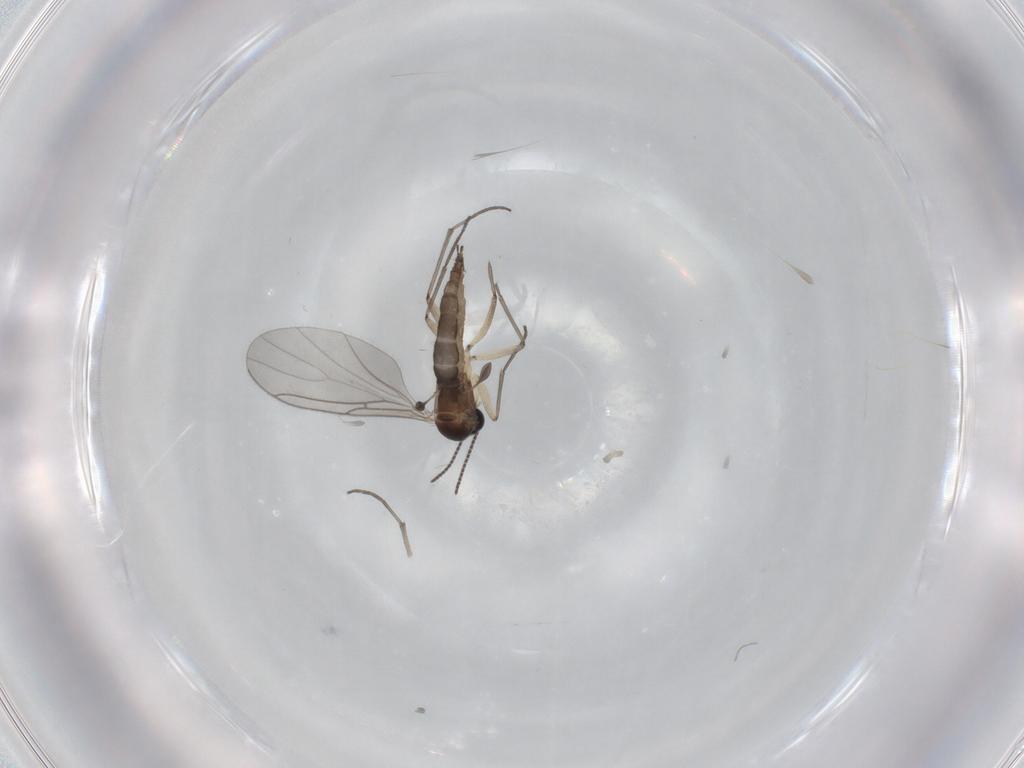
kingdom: Animalia
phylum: Arthropoda
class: Insecta
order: Diptera
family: Sciaridae
